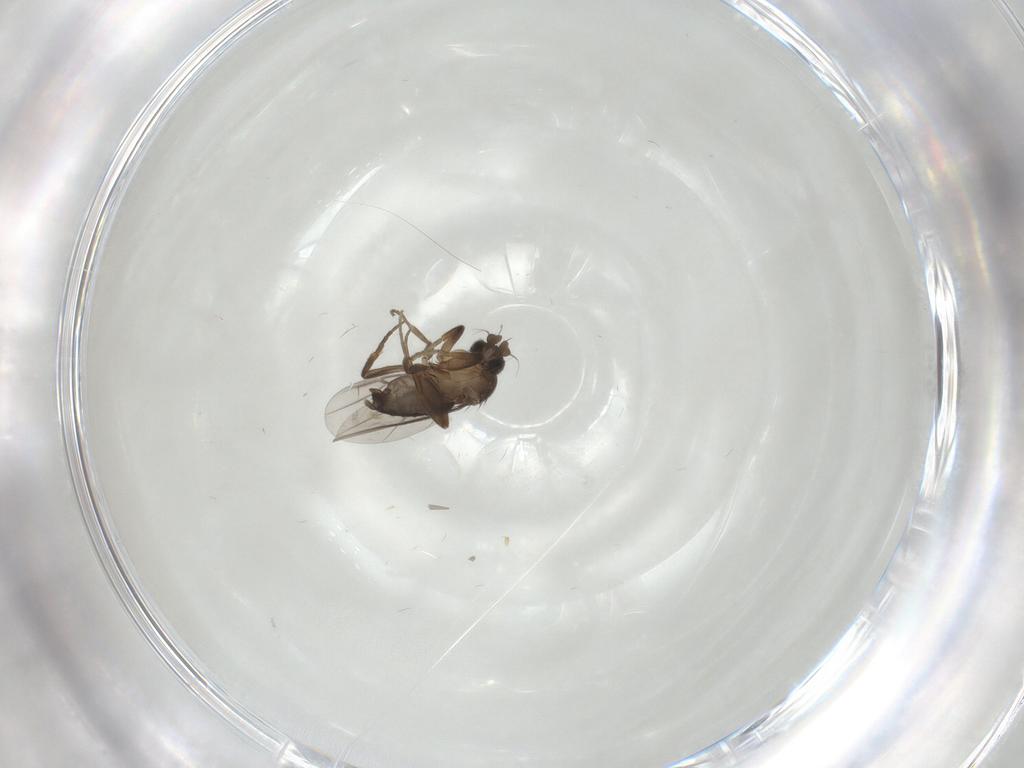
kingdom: Animalia
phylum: Arthropoda
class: Insecta
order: Diptera
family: Phoridae
